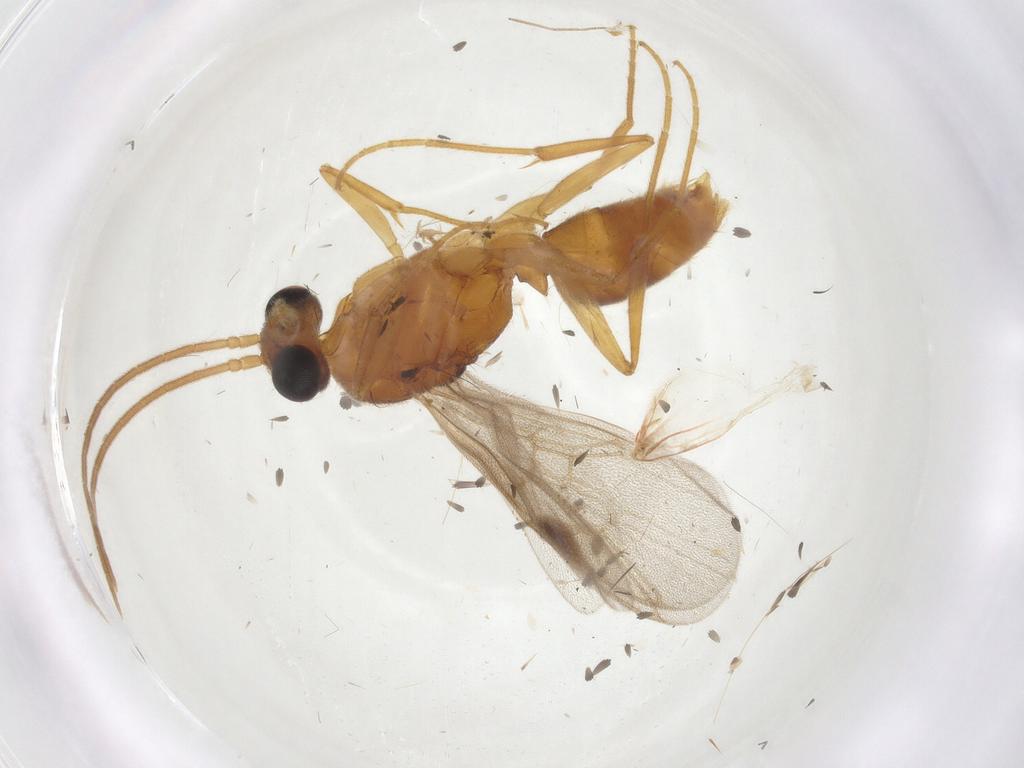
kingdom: Animalia
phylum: Arthropoda
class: Insecta
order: Hymenoptera
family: Formicidae
